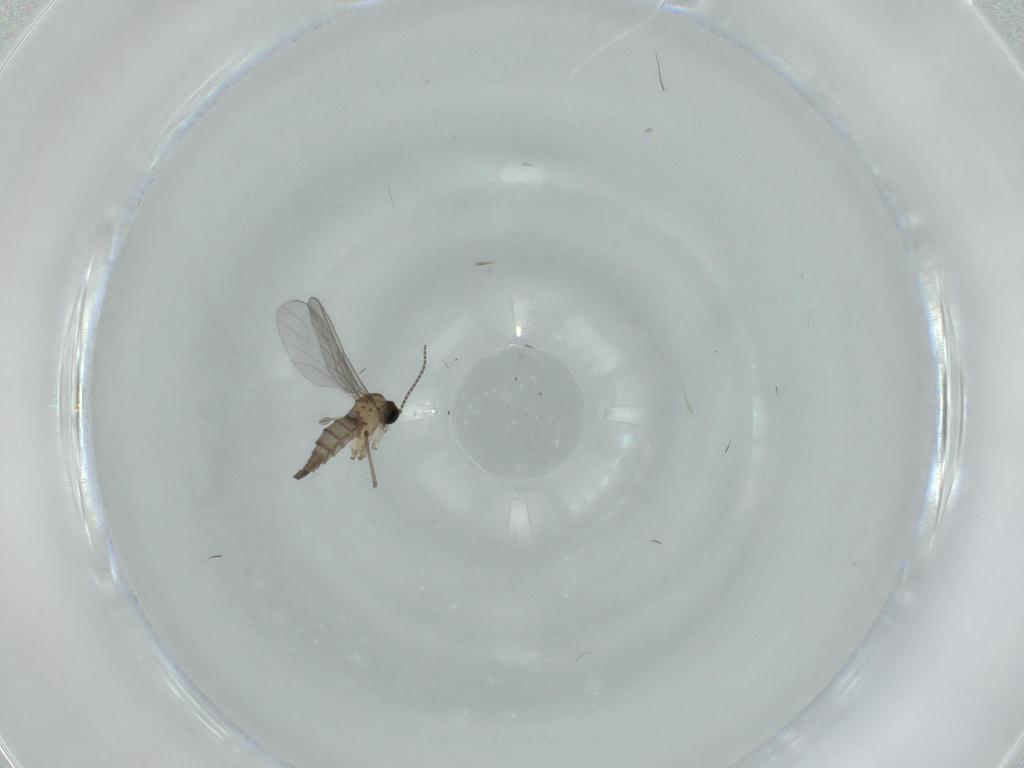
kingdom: Animalia
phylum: Arthropoda
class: Insecta
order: Diptera
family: Sciaridae
